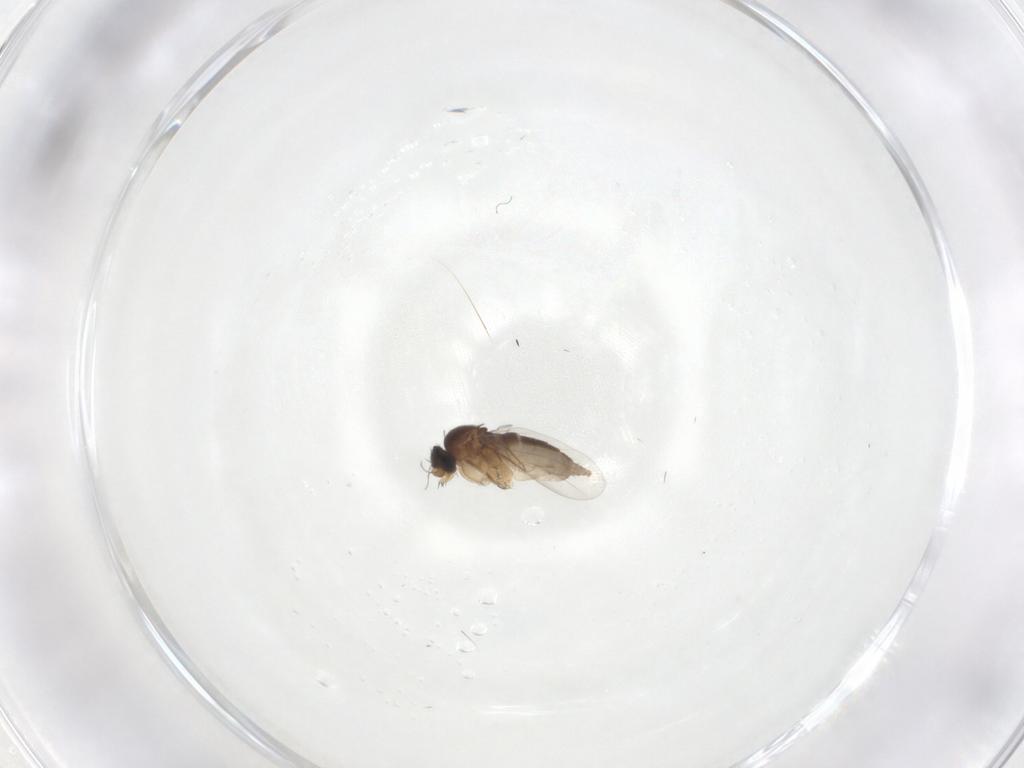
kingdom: Animalia
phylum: Arthropoda
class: Insecta
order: Diptera
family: Phoridae
